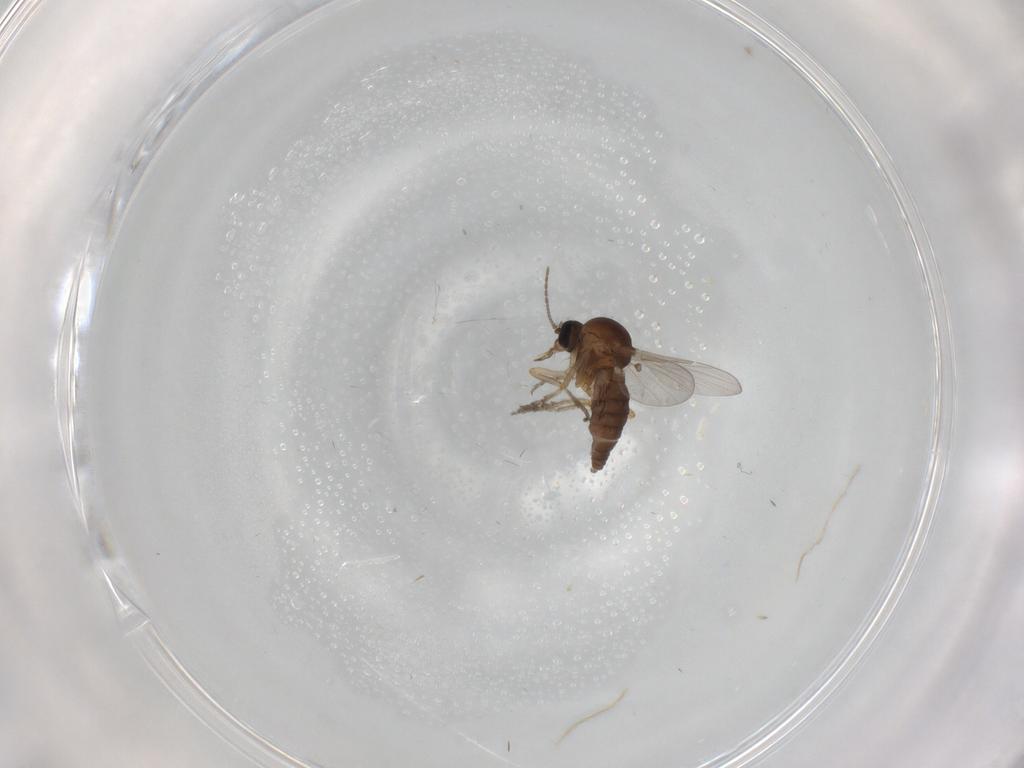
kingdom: Animalia
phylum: Arthropoda
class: Insecta
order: Diptera
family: Ceratopogonidae
